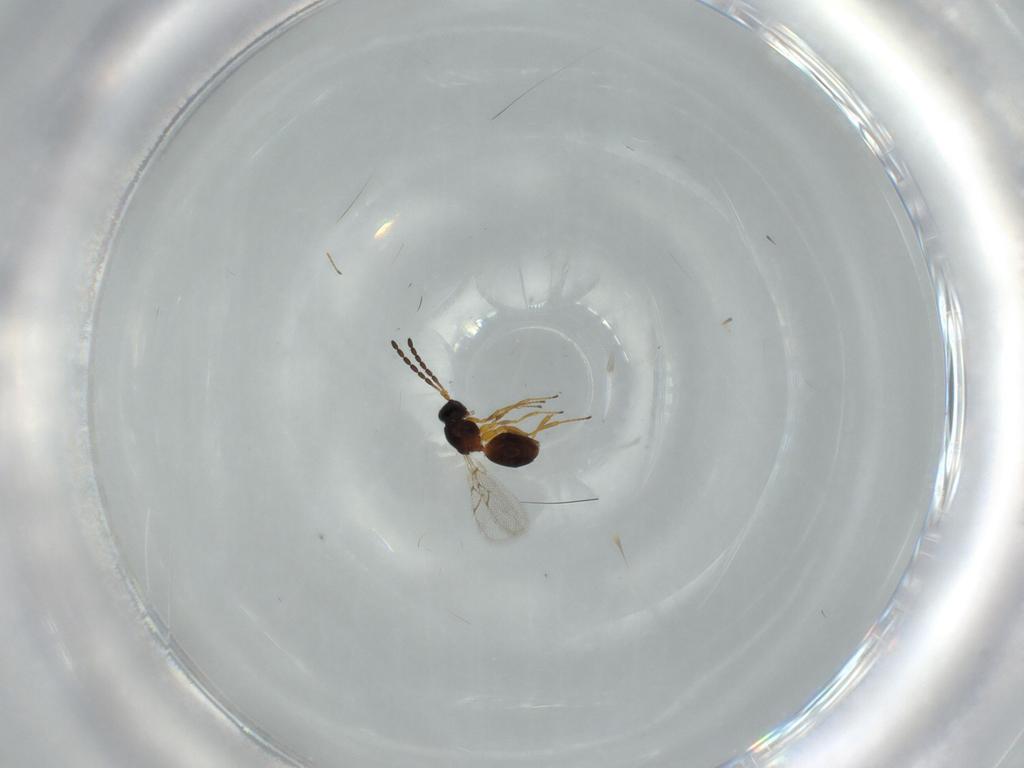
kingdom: Animalia
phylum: Arthropoda
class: Insecta
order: Hymenoptera
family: Figitidae
